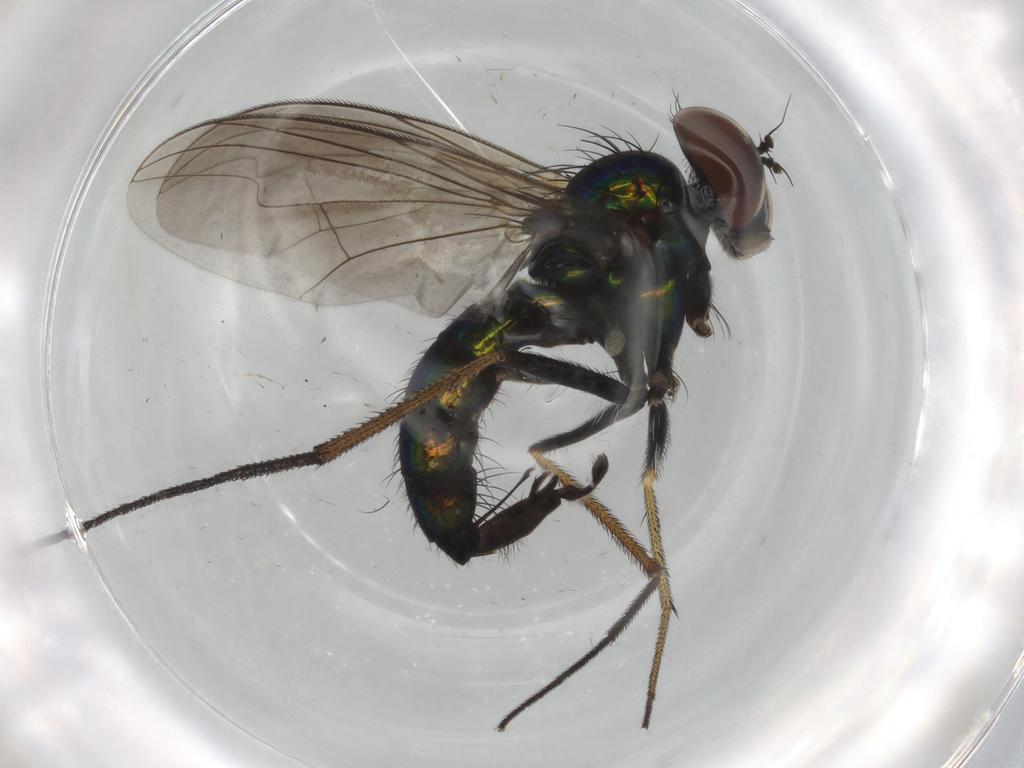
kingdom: Animalia
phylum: Arthropoda
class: Insecta
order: Diptera
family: Dolichopodidae
